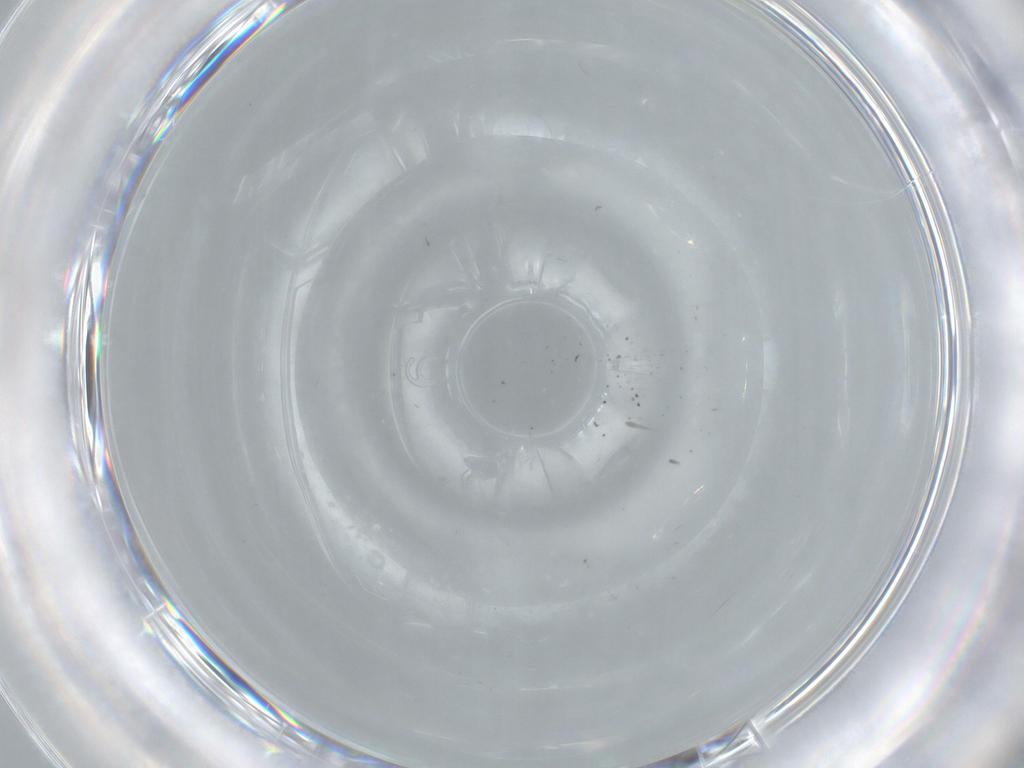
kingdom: Animalia
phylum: Arthropoda
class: Insecta
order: Diptera
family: Cecidomyiidae
